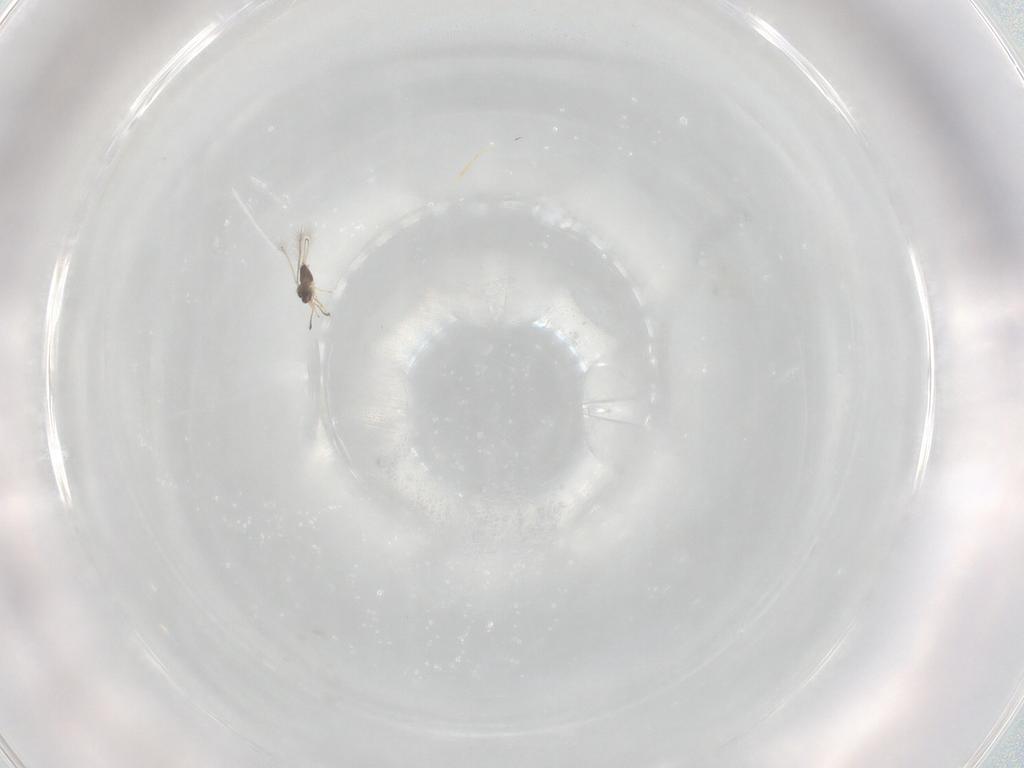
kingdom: Animalia
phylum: Arthropoda
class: Insecta
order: Hymenoptera
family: Mymaridae
